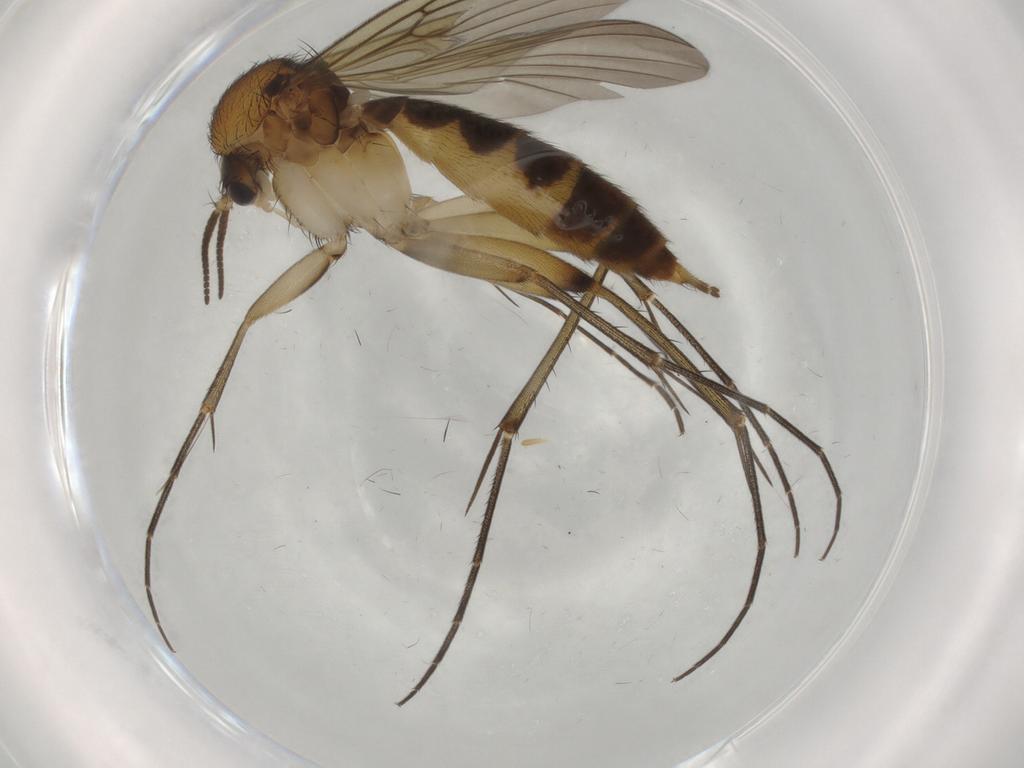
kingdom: Animalia
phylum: Arthropoda
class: Insecta
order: Diptera
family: Mycetophilidae
